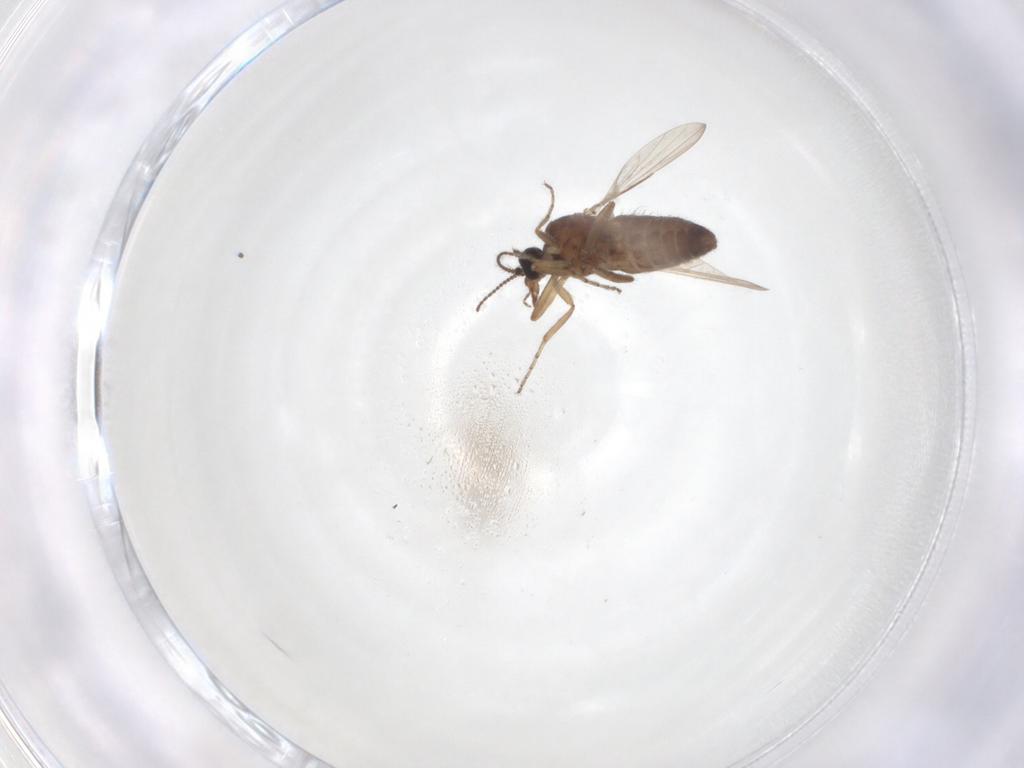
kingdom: Animalia
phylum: Arthropoda
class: Insecta
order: Diptera
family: Ceratopogonidae
